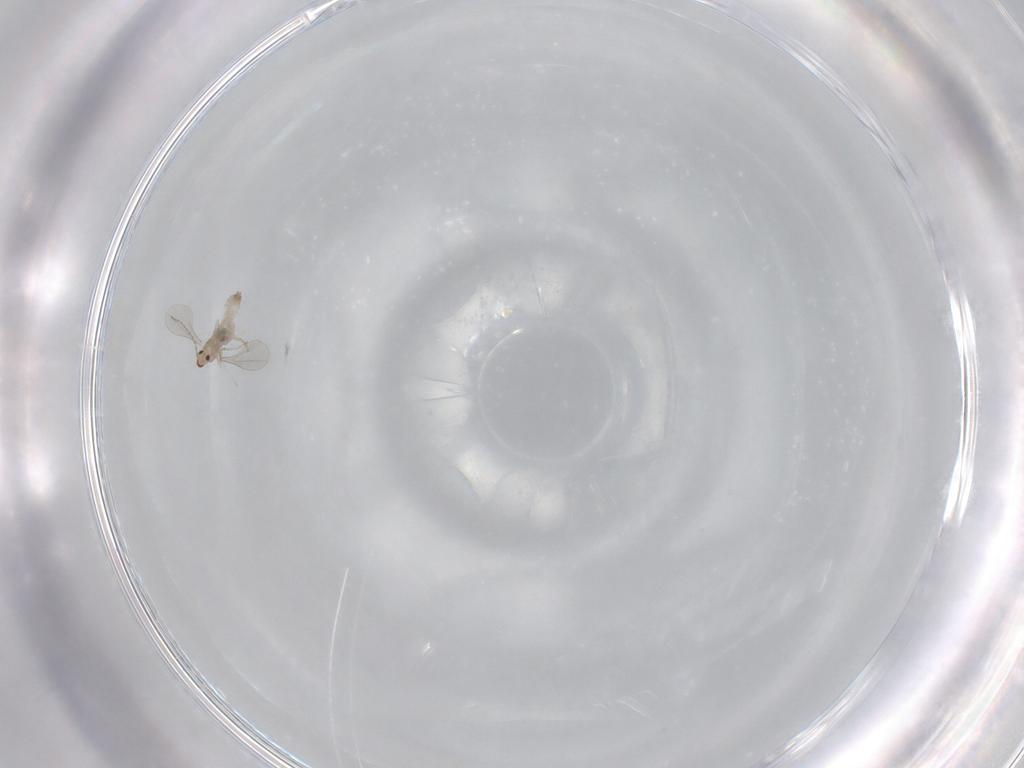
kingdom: Animalia
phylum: Arthropoda
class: Insecta
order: Diptera
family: Cecidomyiidae
